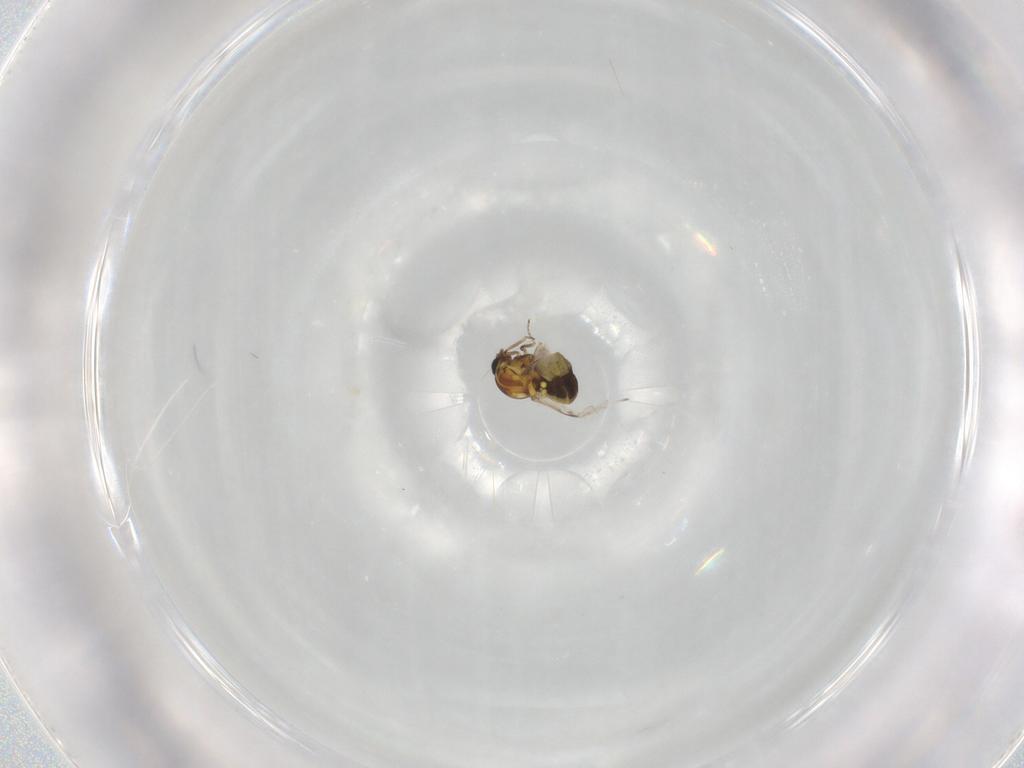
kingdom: Animalia
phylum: Arthropoda
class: Insecta
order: Diptera
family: Ceratopogonidae
